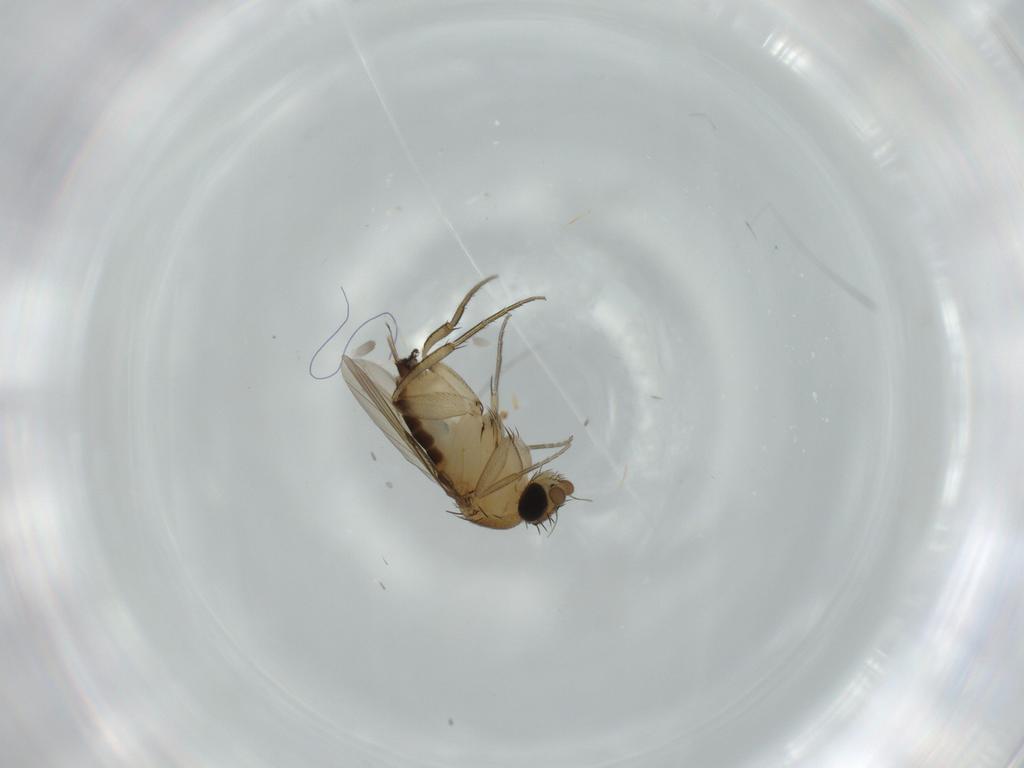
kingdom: Animalia
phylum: Arthropoda
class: Insecta
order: Diptera
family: Phoridae
